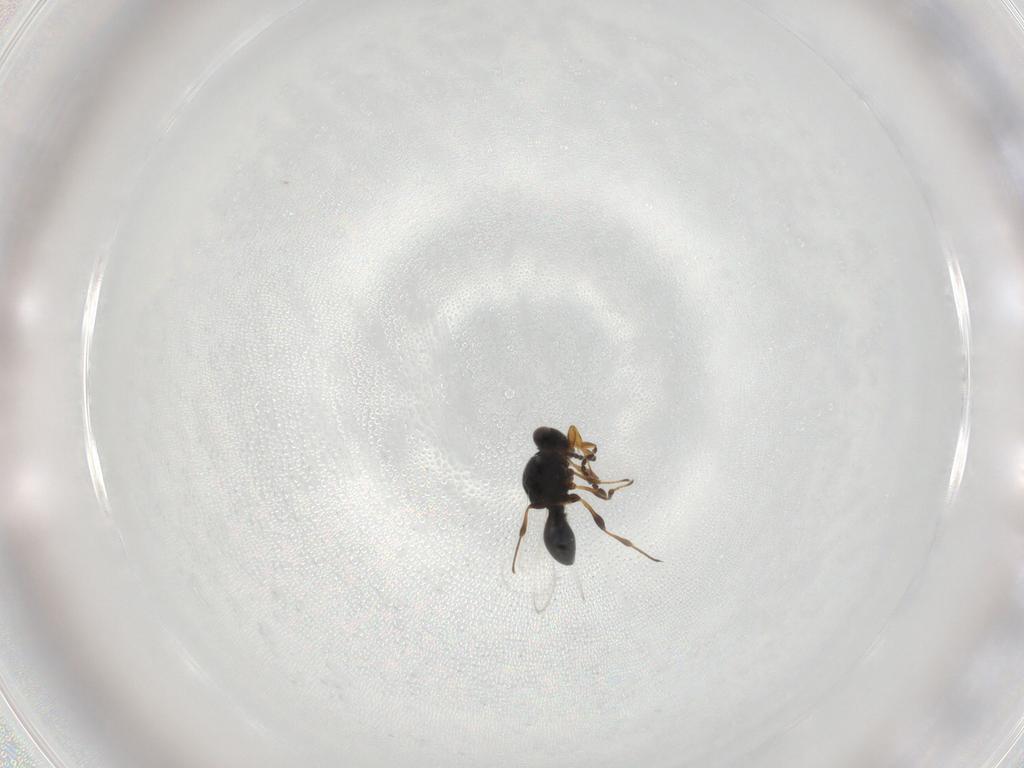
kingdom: Animalia
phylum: Arthropoda
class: Insecta
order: Hymenoptera
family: Platygastridae
